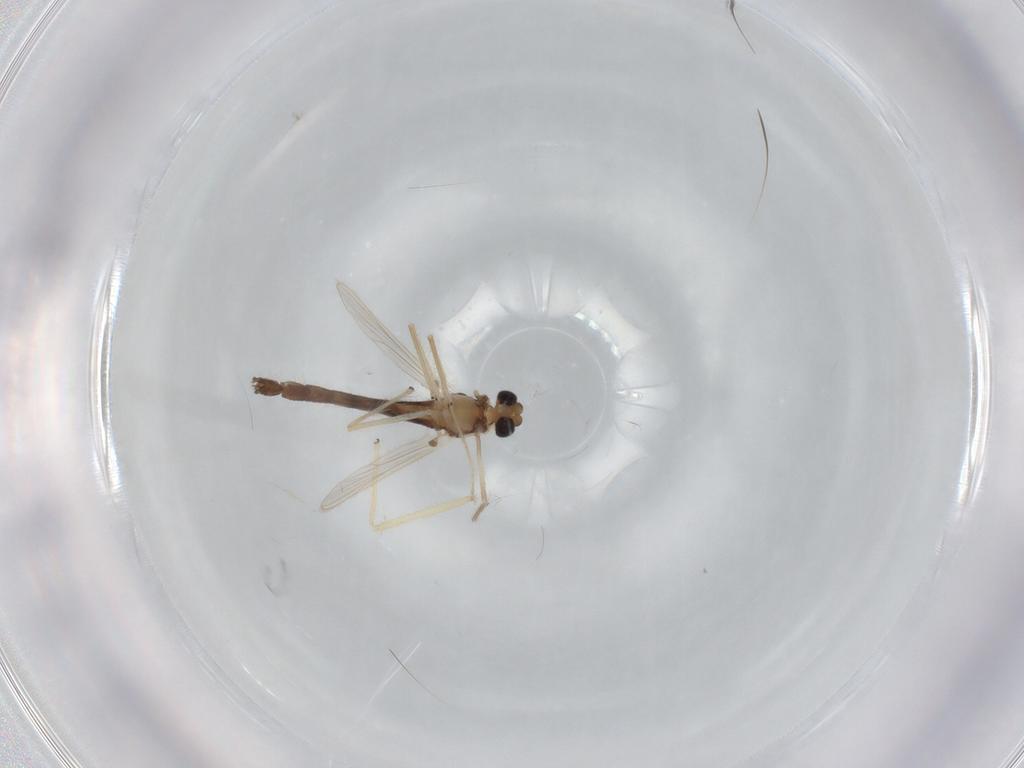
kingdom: Animalia
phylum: Arthropoda
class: Insecta
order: Diptera
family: Chironomidae
